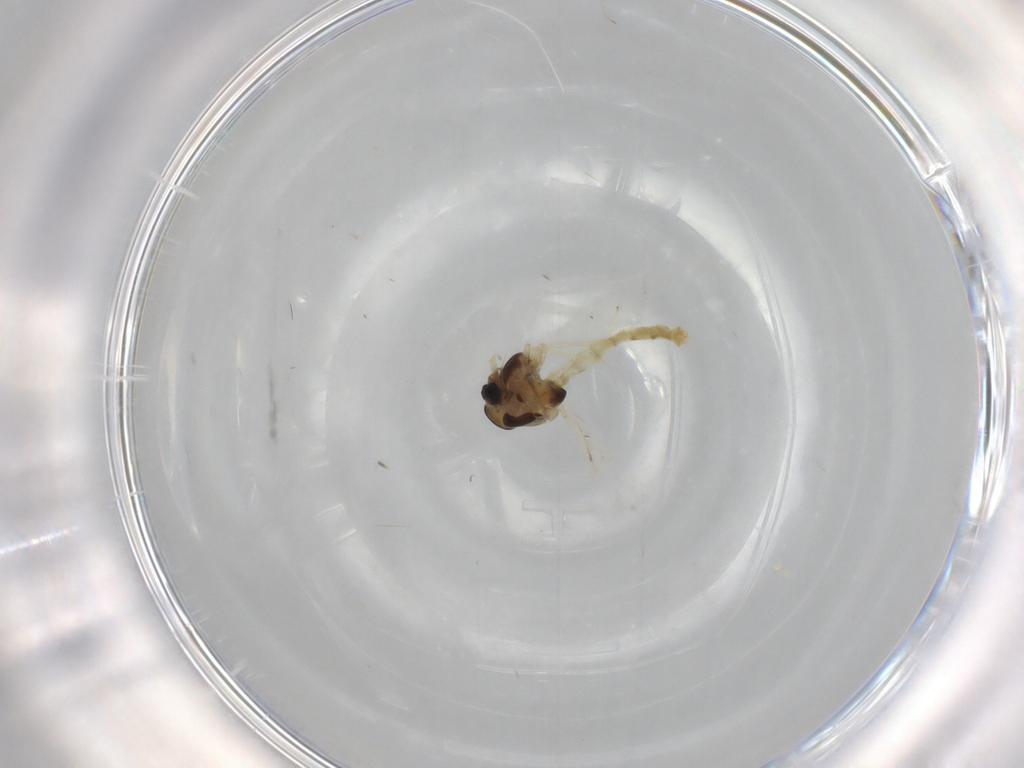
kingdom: Animalia
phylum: Arthropoda
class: Insecta
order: Diptera
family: Chironomidae
